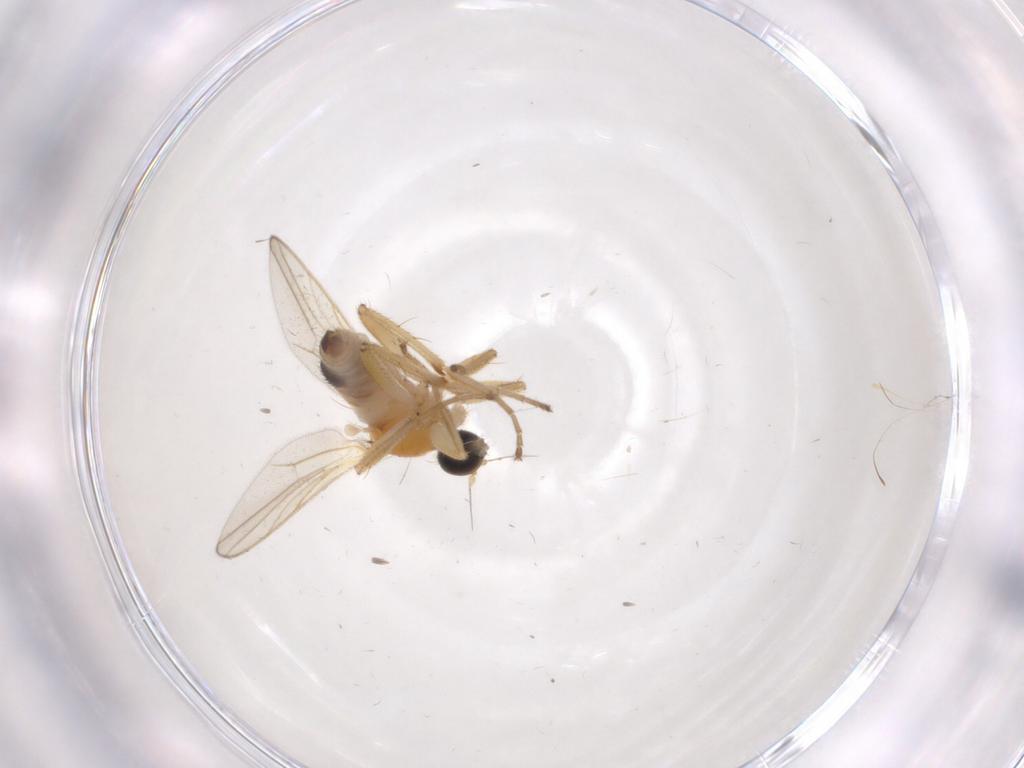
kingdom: Animalia
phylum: Arthropoda
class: Insecta
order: Diptera
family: Hybotidae
